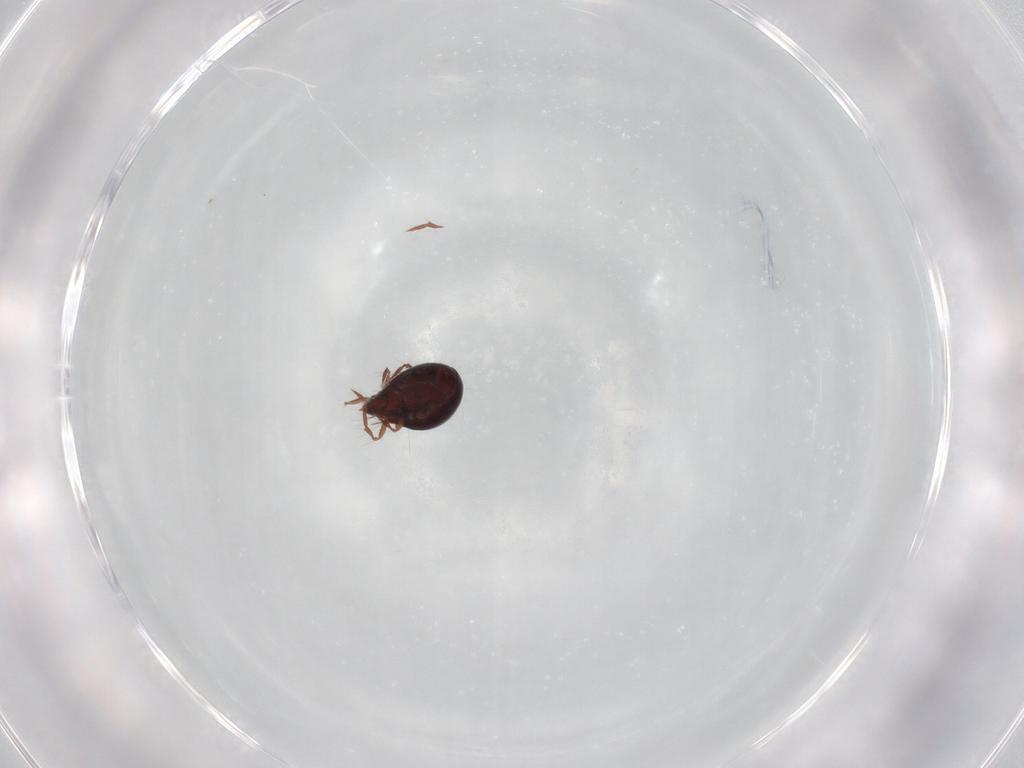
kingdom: Animalia
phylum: Arthropoda
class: Arachnida
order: Sarcoptiformes
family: Ceratoppiidae
